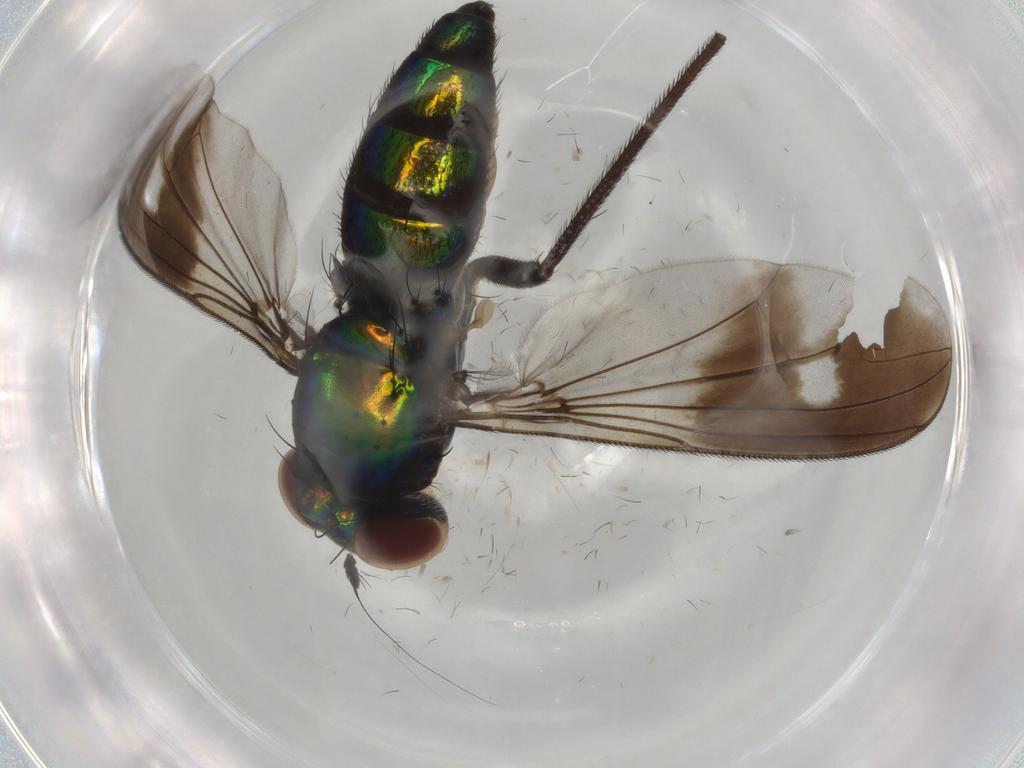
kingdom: Animalia
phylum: Arthropoda
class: Insecta
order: Diptera
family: Dolichopodidae
